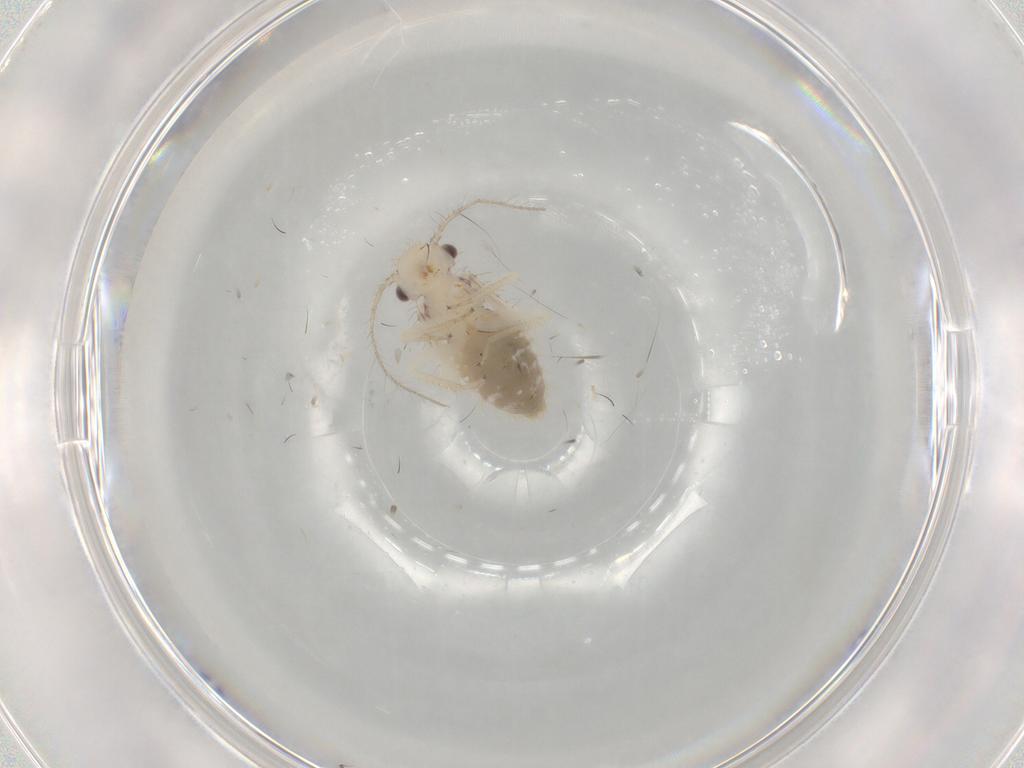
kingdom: Animalia
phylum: Arthropoda
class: Insecta
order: Psocodea
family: Pseudocaeciliidae
